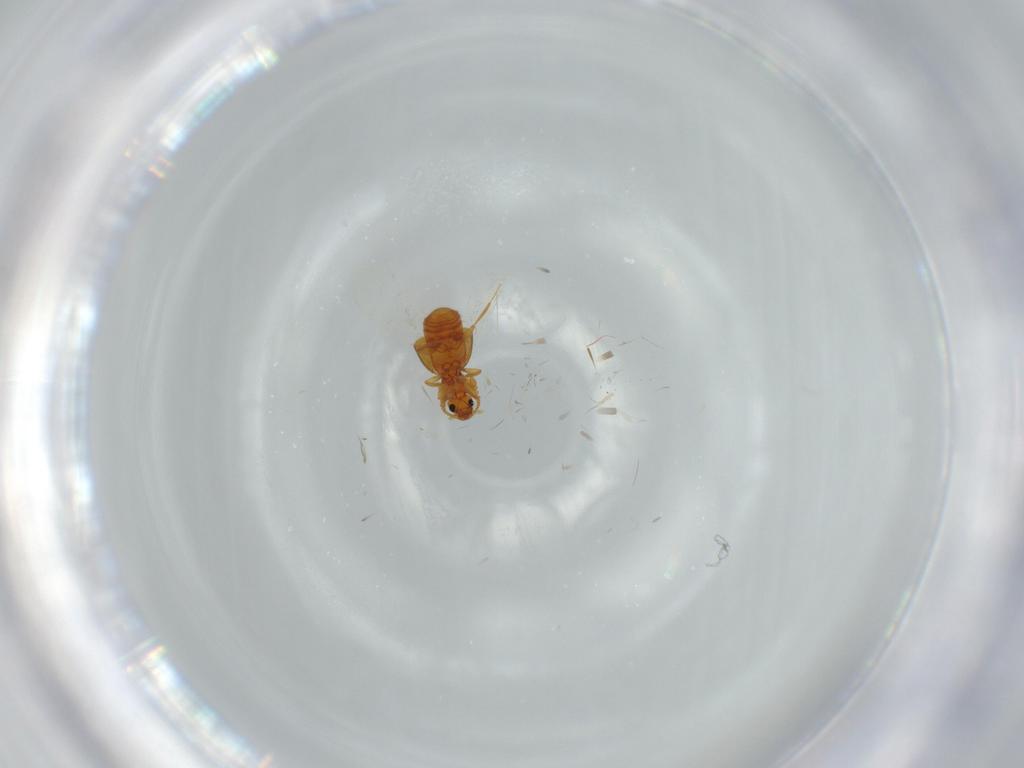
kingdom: Animalia
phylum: Arthropoda
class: Insecta
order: Coleoptera
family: Staphylinidae
